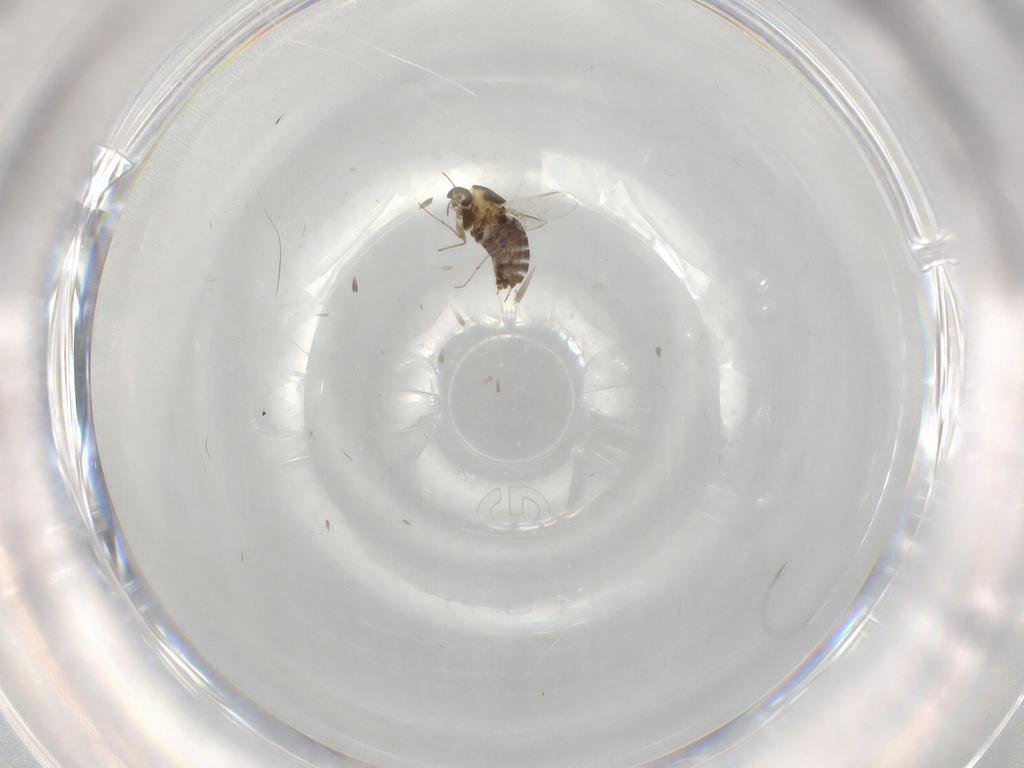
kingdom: Animalia
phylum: Arthropoda
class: Insecta
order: Diptera
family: Chironomidae
